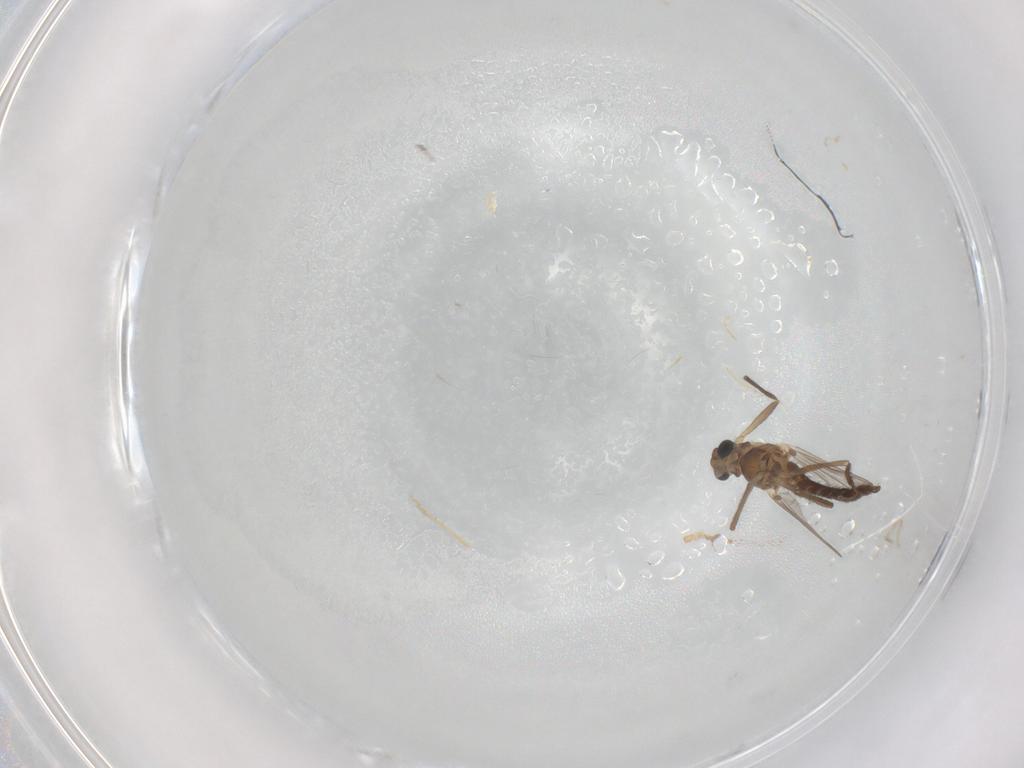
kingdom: Animalia
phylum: Arthropoda
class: Insecta
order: Diptera
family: Chironomidae
